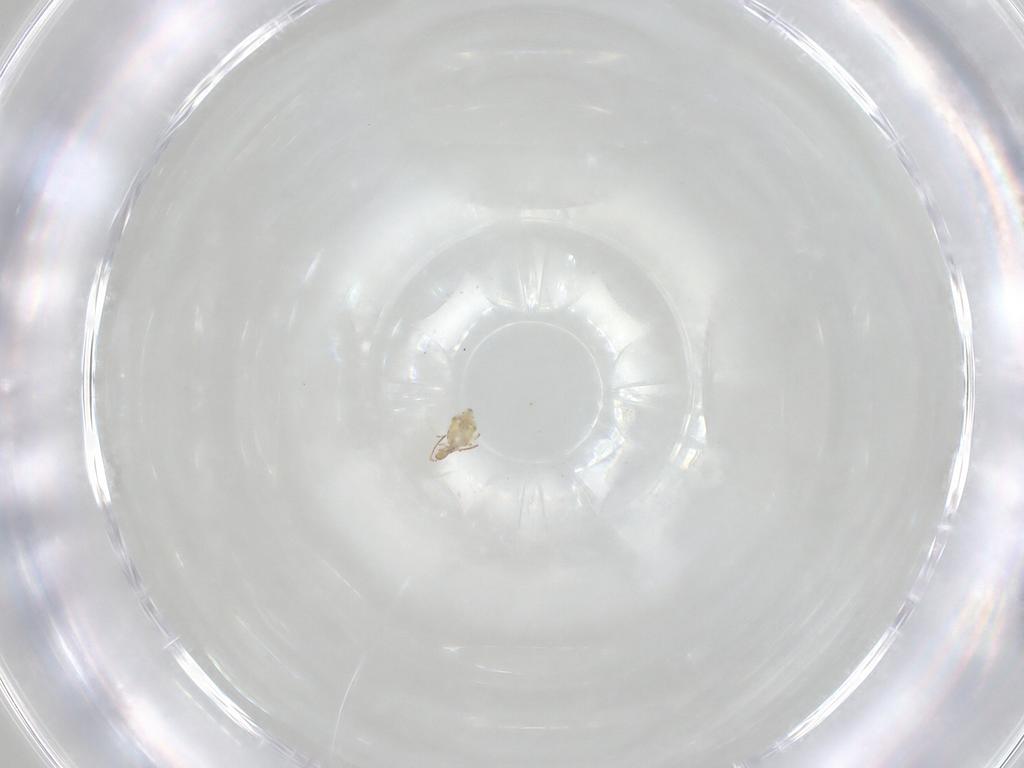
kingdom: Animalia
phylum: Arthropoda
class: Collembola
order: Symphypleona
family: Bourletiellidae
